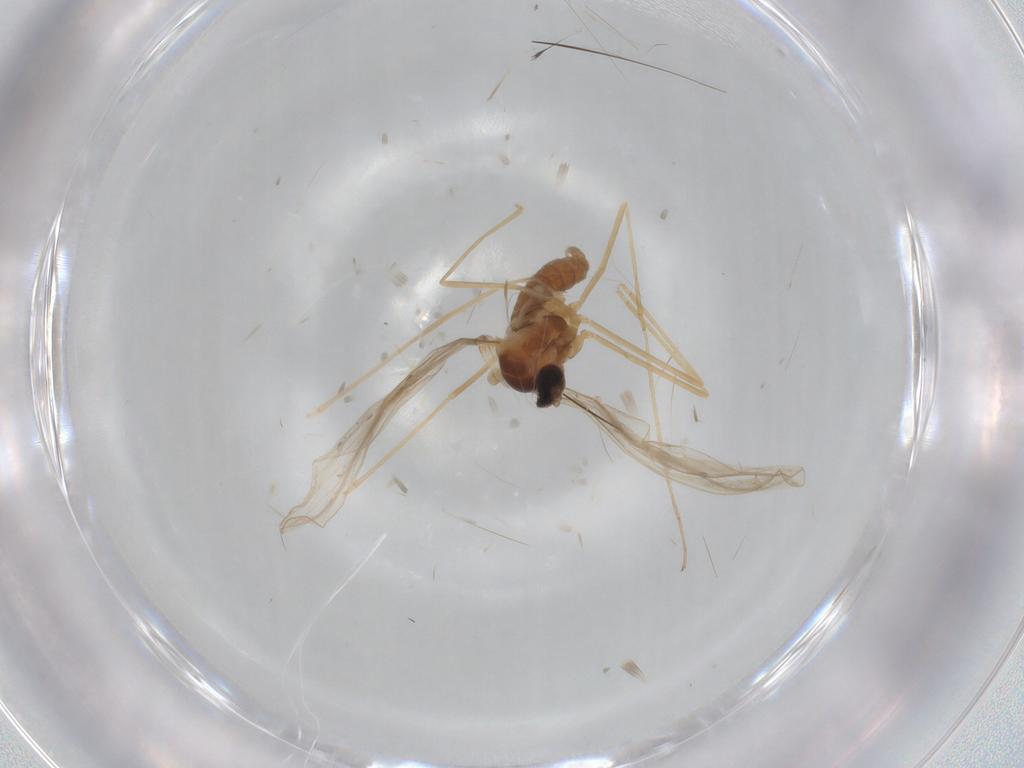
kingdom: Animalia
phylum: Arthropoda
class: Insecta
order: Diptera
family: Cecidomyiidae
